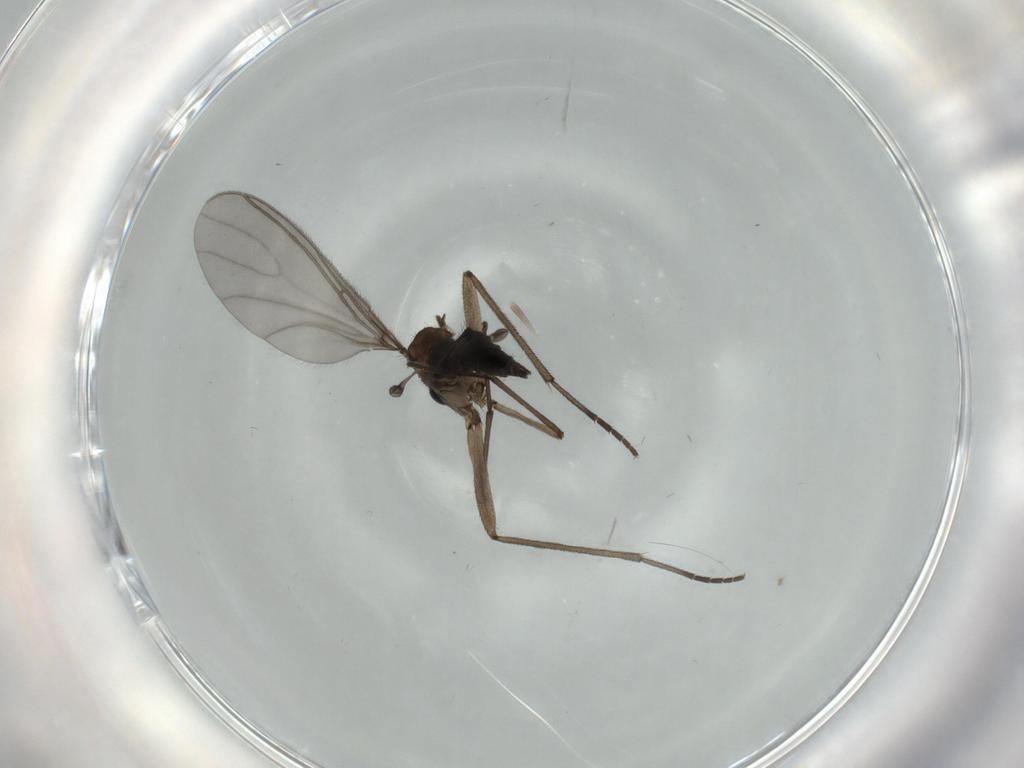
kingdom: Animalia
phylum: Arthropoda
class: Insecta
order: Diptera
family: Sciaridae
